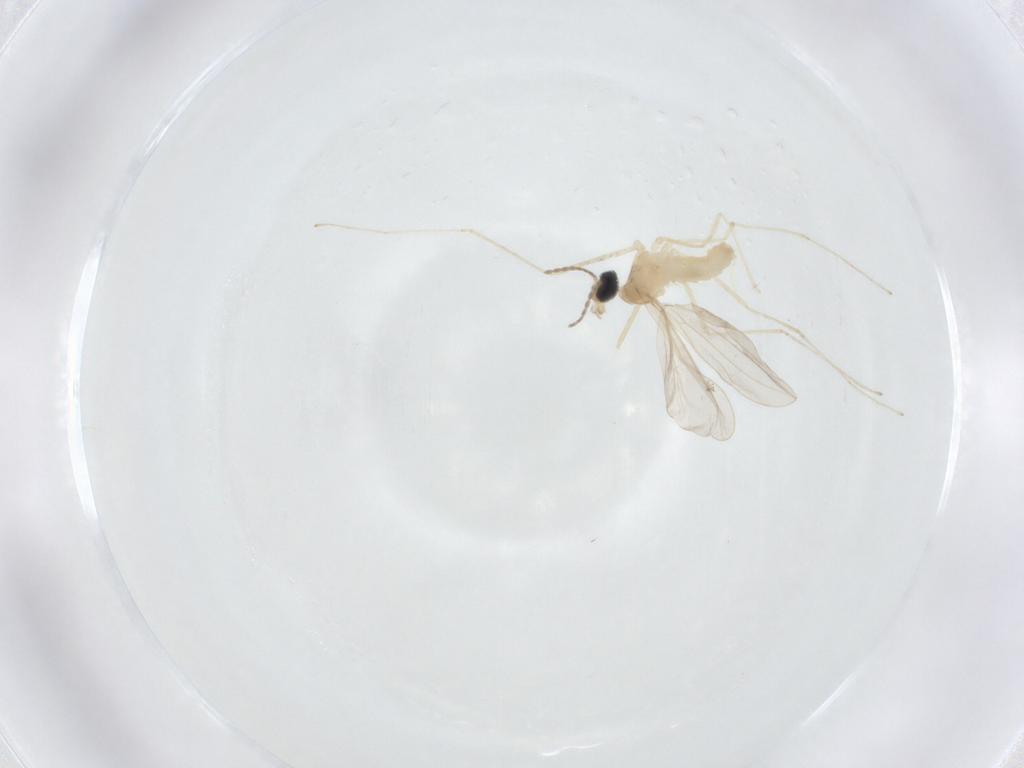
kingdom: Animalia
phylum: Arthropoda
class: Insecta
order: Diptera
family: Cecidomyiidae
